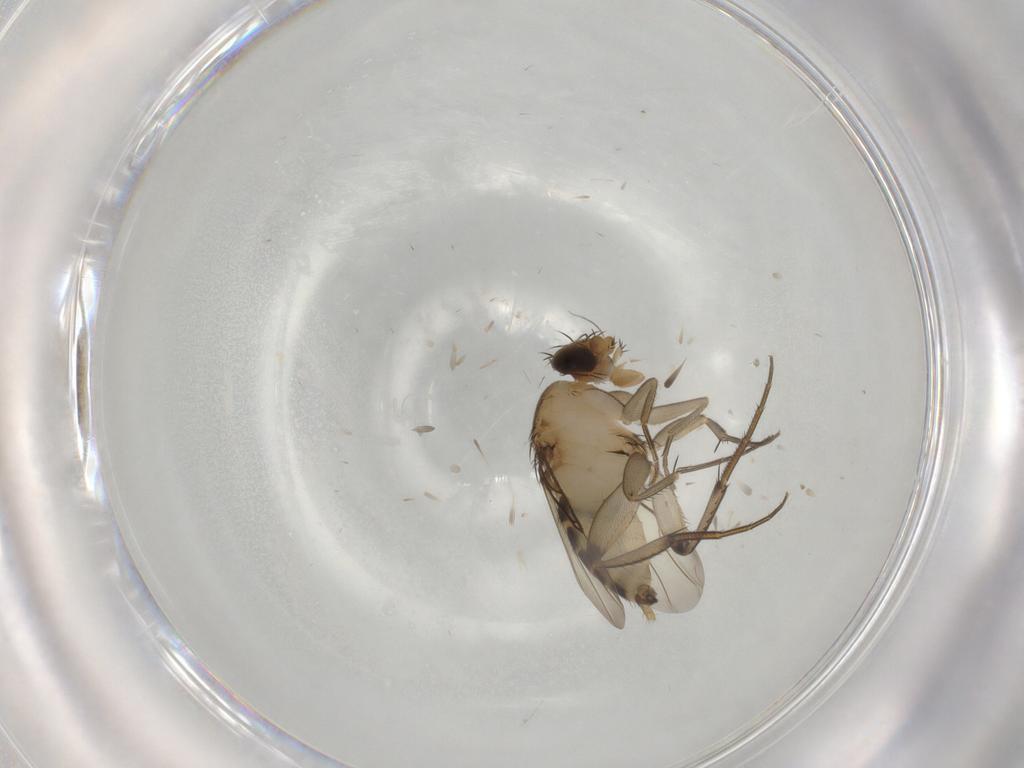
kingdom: Animalia
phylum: Arthropoda
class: Insecta
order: Diptera
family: Phoridae
